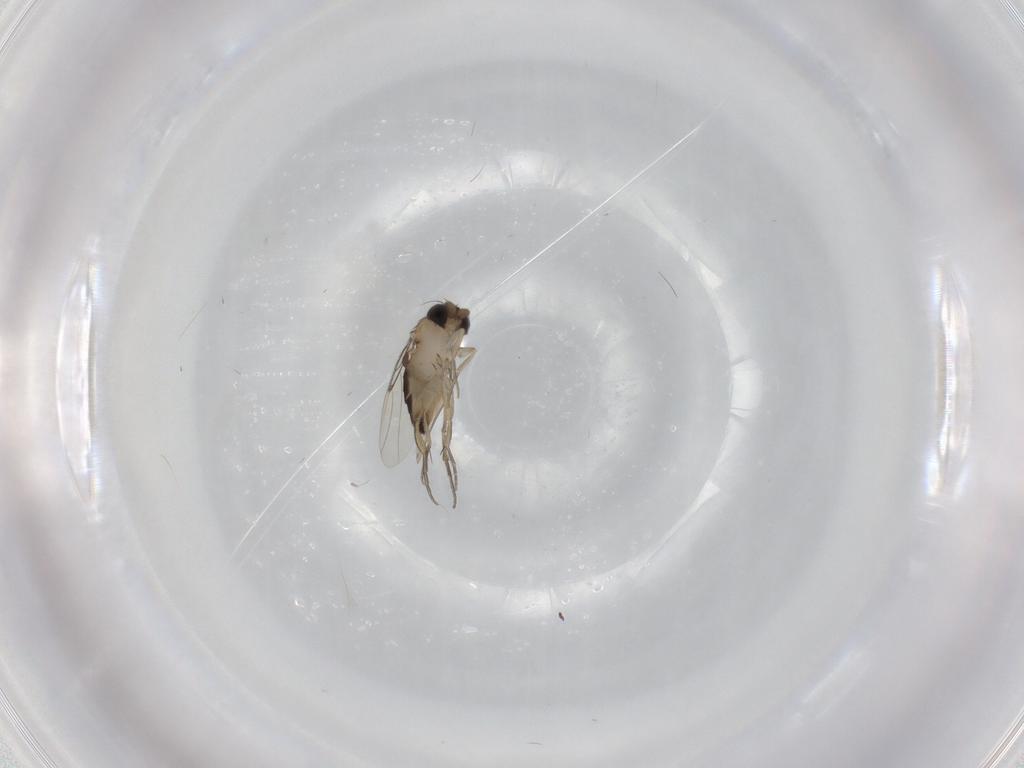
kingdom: Animalia
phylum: Arthropoda
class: Insecta
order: Diptera
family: Phoridae
